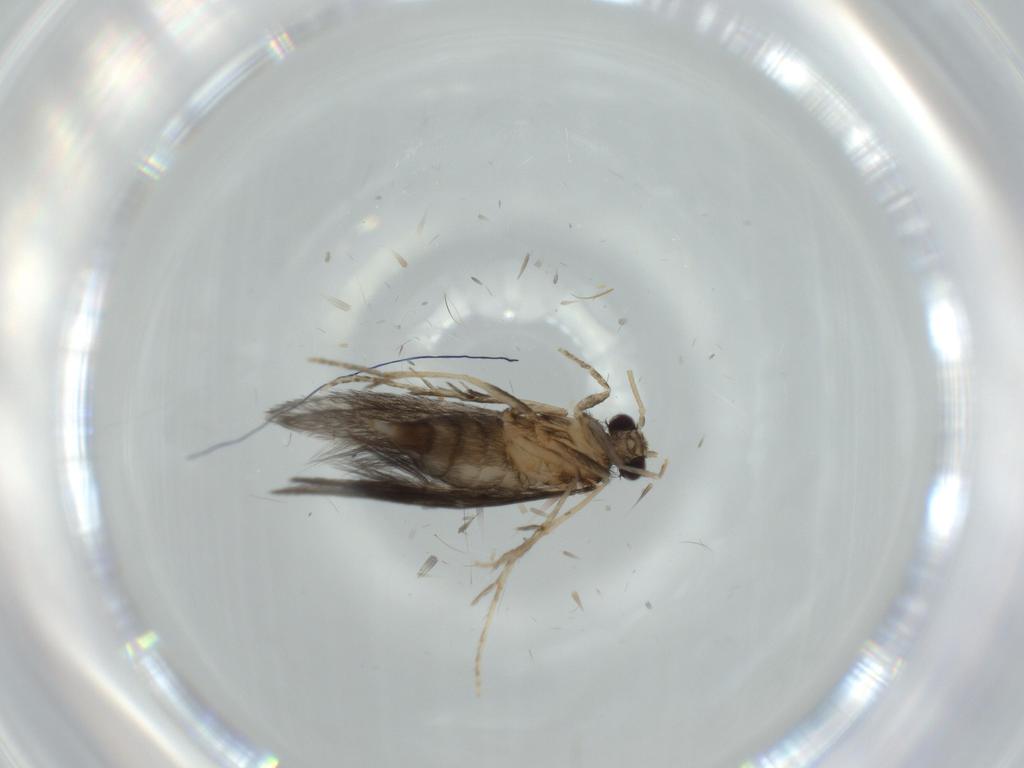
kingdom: Animalia
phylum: Arthropoda
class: Insecta
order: Trichoptera
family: Hydroptilidae
